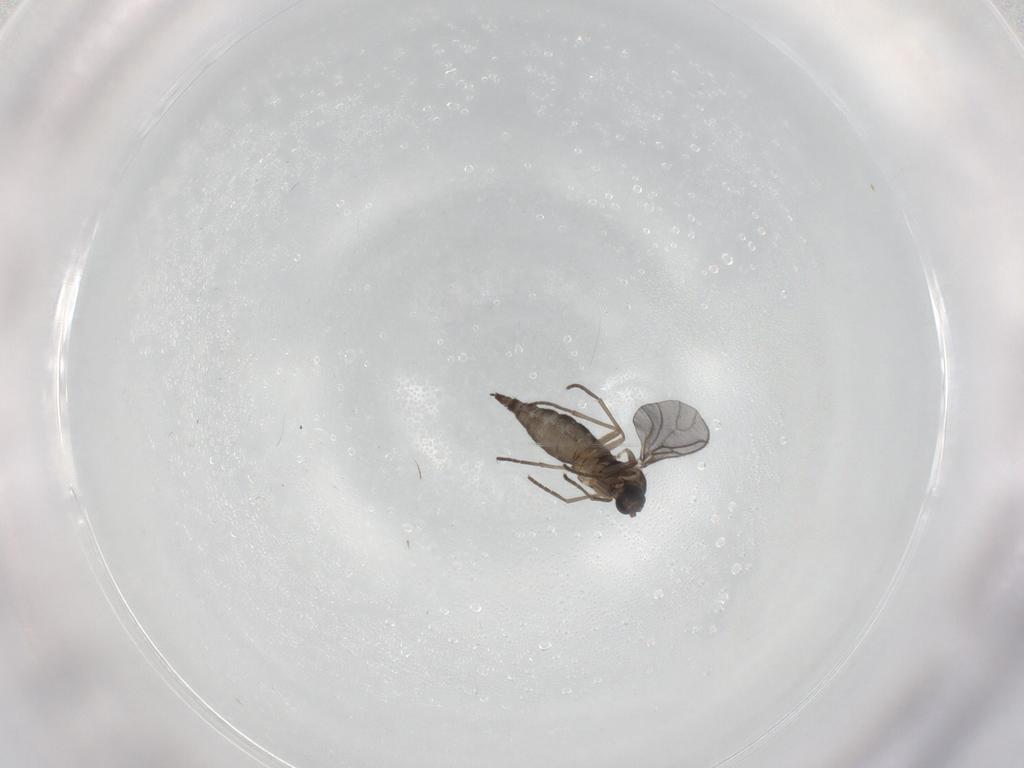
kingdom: Animalia
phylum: Arthropoda
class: Insecta
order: Diptera
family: Sciaridae
